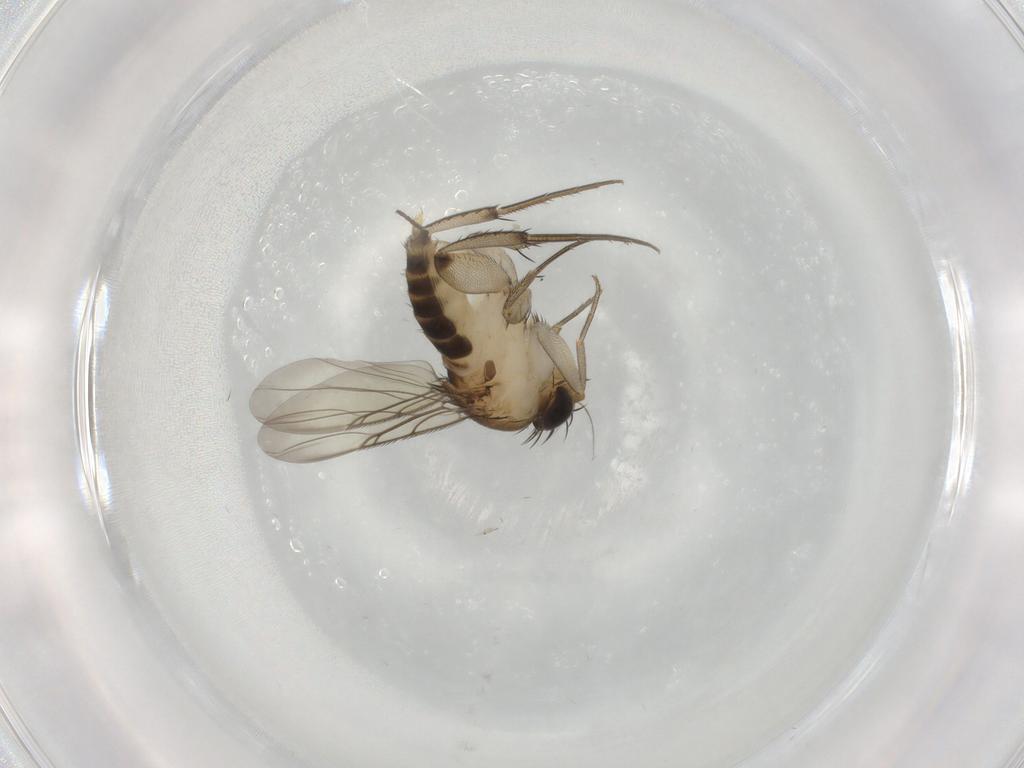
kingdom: Animalia
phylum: Arthropoda
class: Insecta
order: Diptera
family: Phoridae
